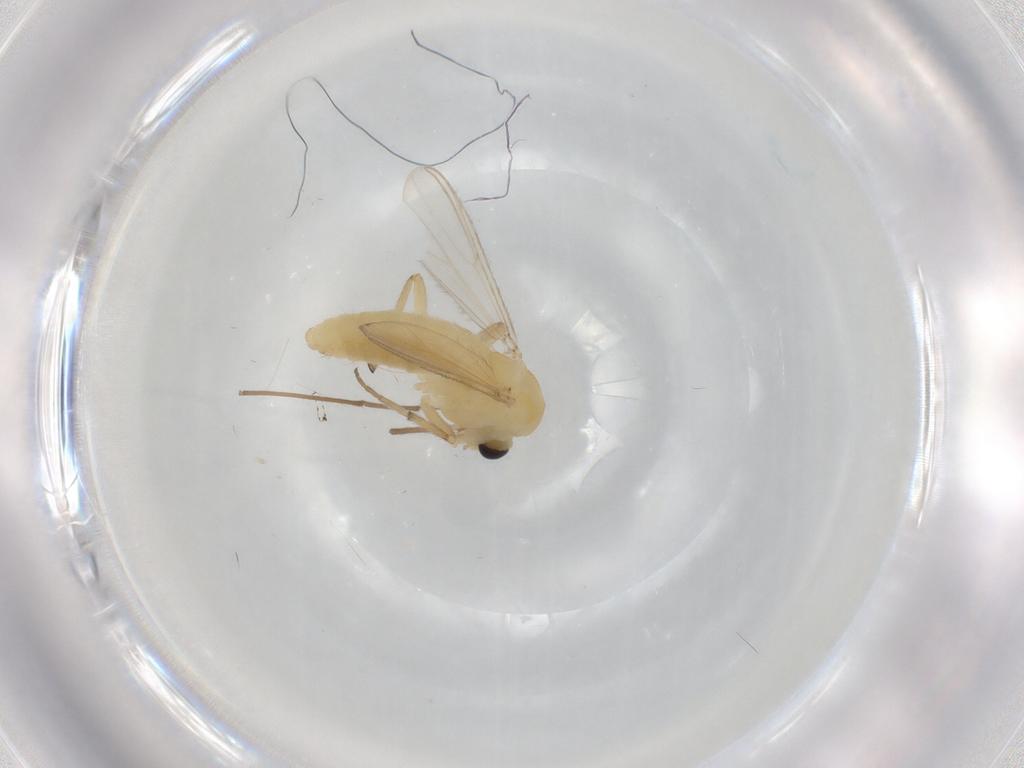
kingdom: Animalia
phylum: Arthropoda
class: Insecta
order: Diptera
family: Chironomidae
